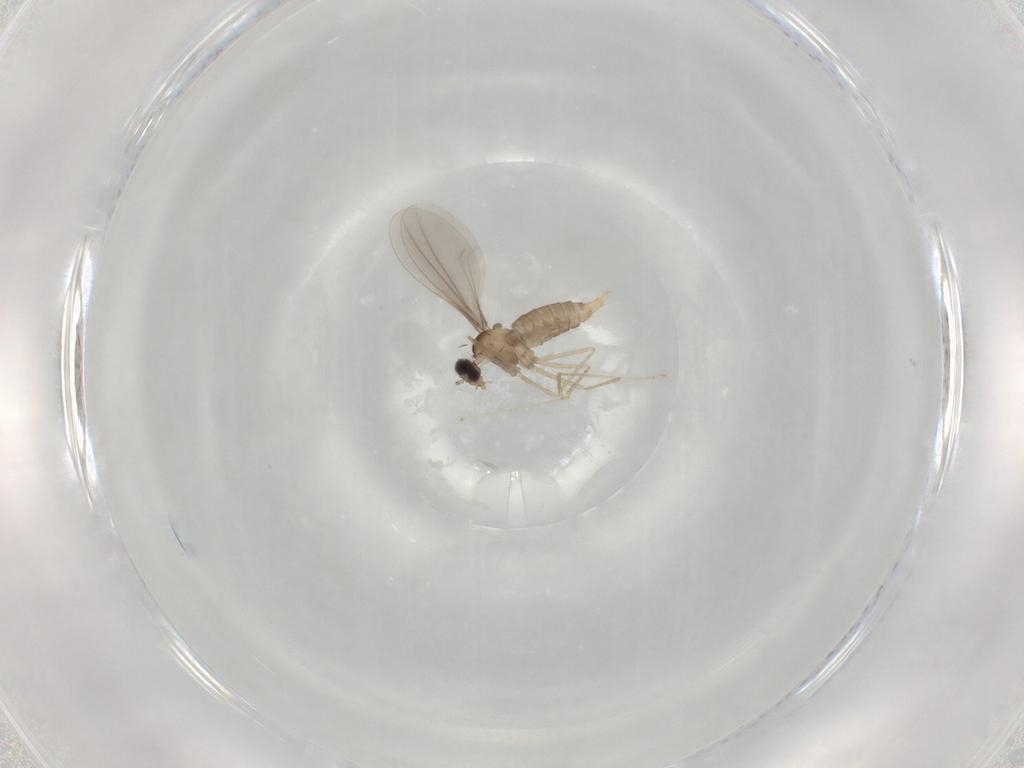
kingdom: Animalia
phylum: Arthropoda
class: Insecta
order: Diptera
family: Cecidomyiidae
